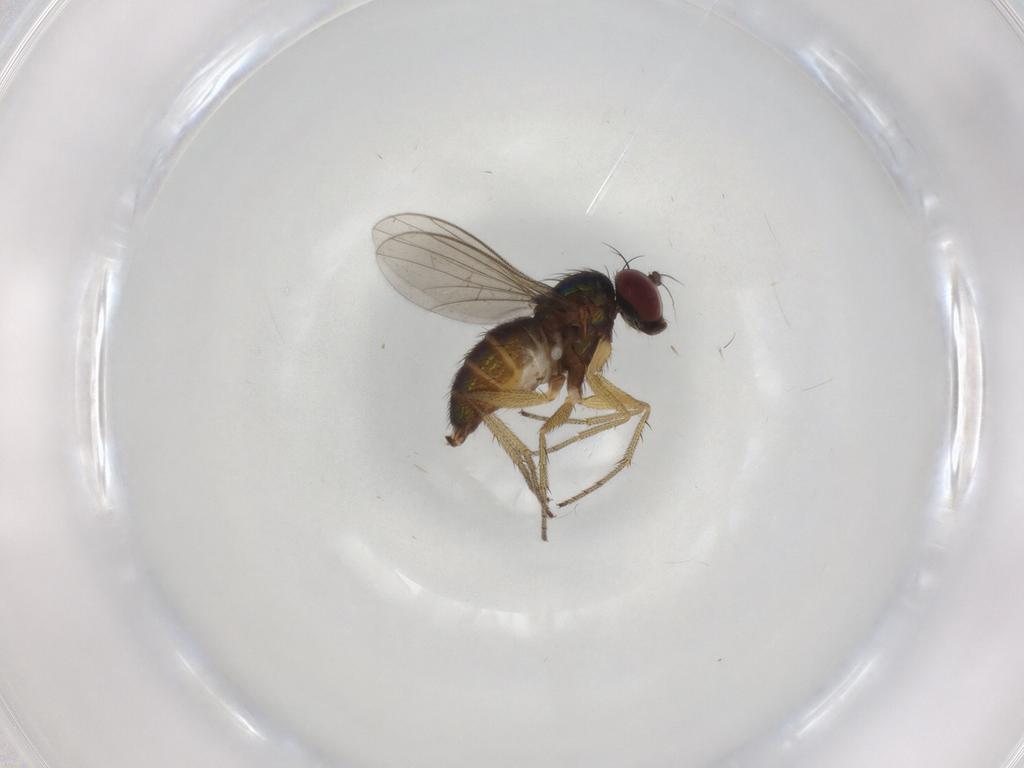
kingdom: Animalia
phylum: Arthropoda
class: Insecta
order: Diptera
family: Dolichopodidae
